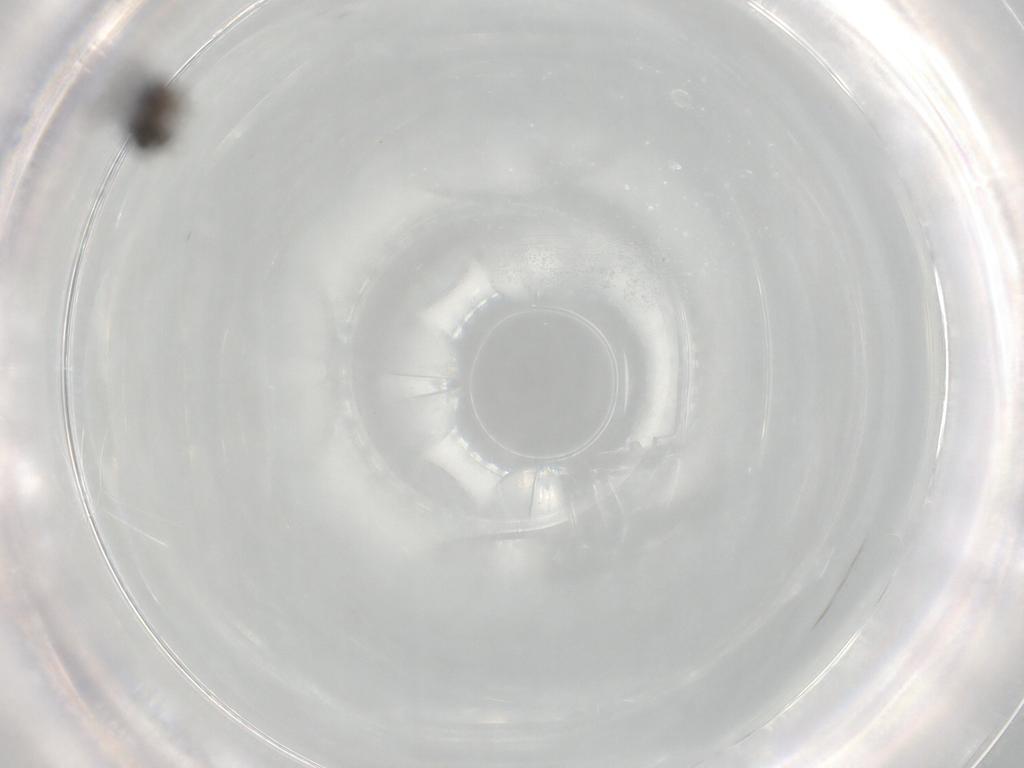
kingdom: Animalia
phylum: Arthropoda
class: Insecta
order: Diptera
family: Ceratopogonidae
